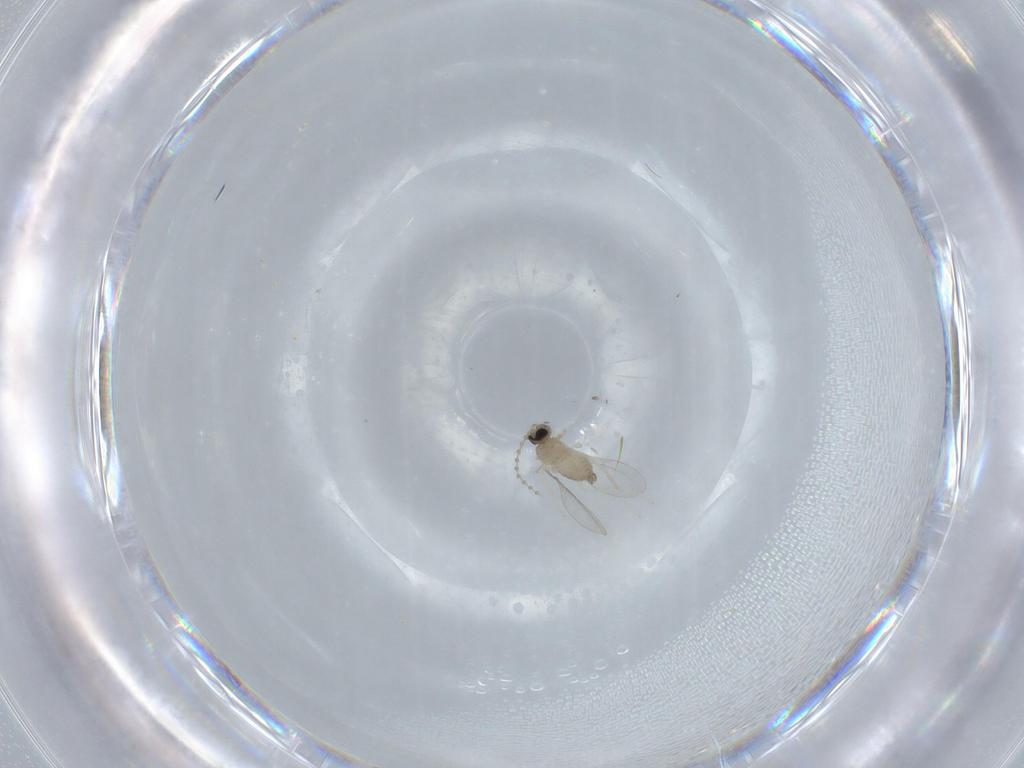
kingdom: Animalia
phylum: Arthropoda
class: Insecta
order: Diptera
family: Cecidomyiidae
